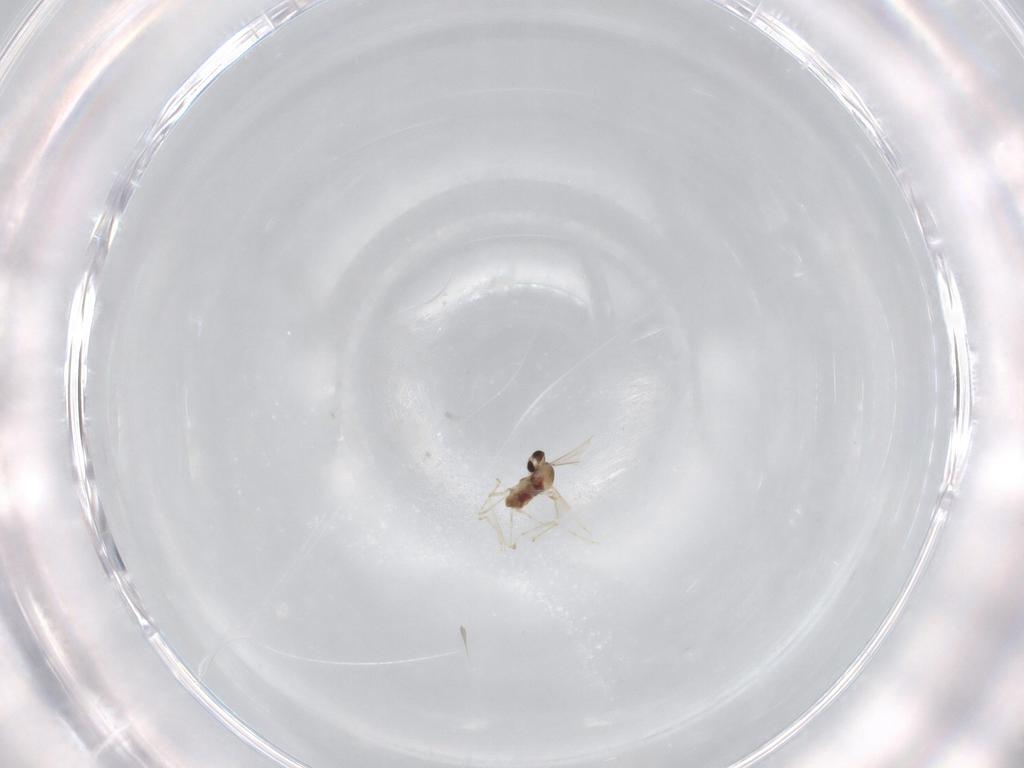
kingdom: Animalia
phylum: Arthropoda
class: Insecta
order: Diptera
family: Cecidomyiidae
